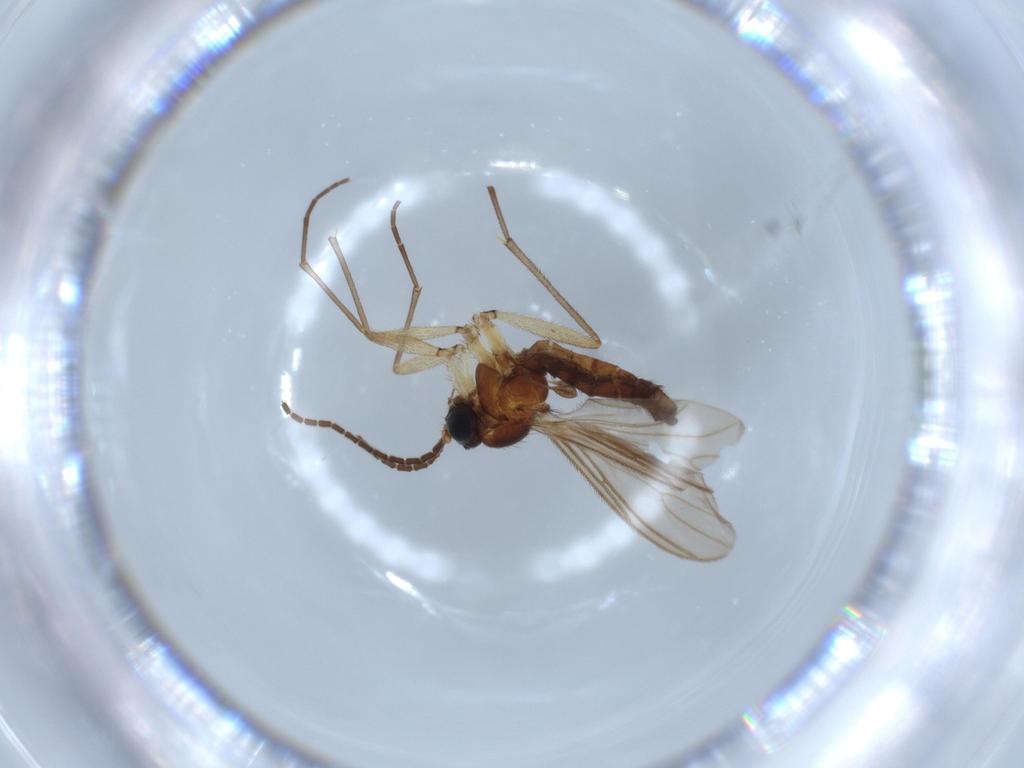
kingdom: Animalia
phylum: Arthropoda
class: Insecta
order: Diptera
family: Sciaridae
